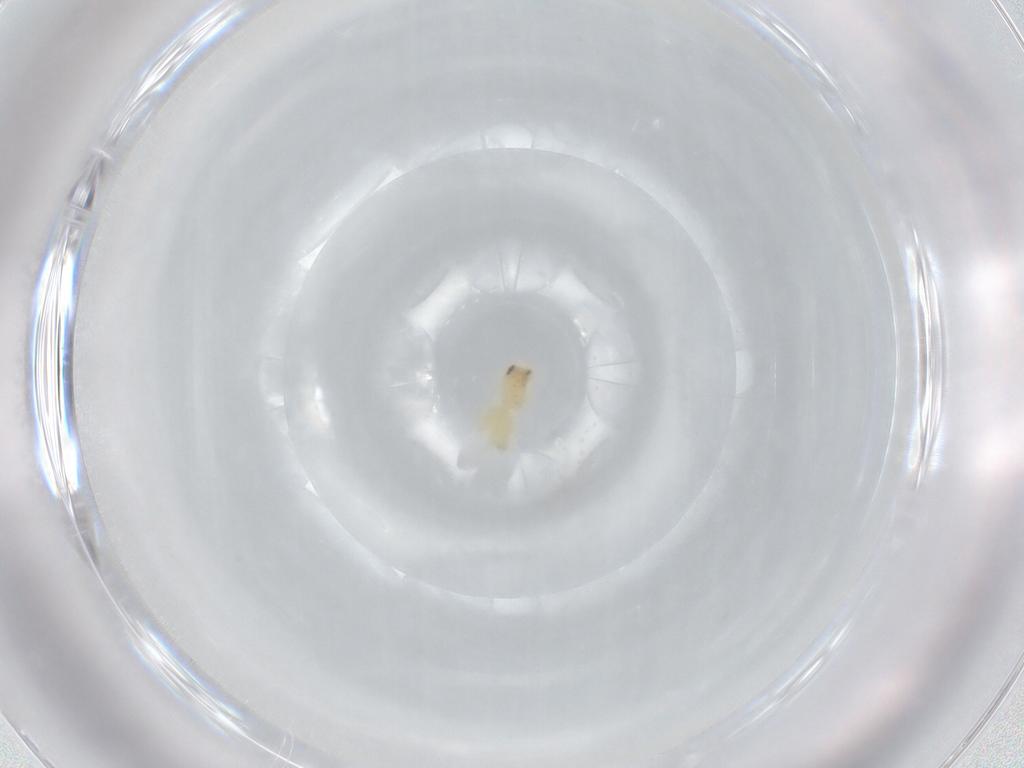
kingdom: Animalia
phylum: Arthropoda
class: Arachnida
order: Araneae
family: Oonopidae
